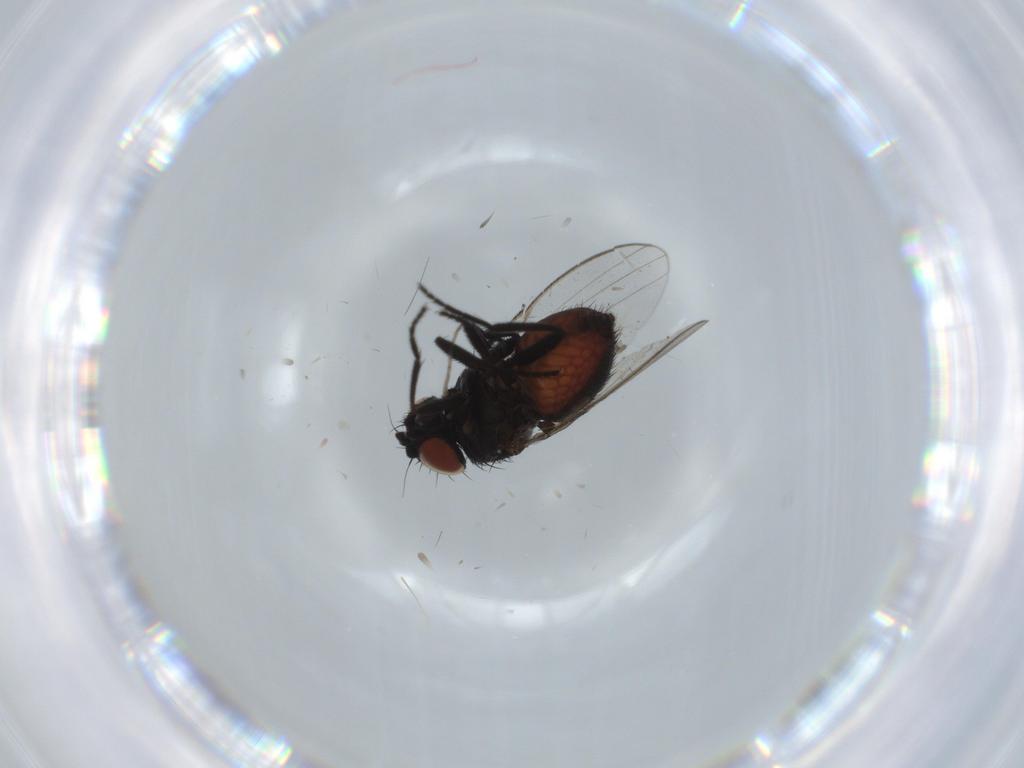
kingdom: Animalia
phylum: Arthropoda
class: Insecta
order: Diptera
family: Milichiidae
